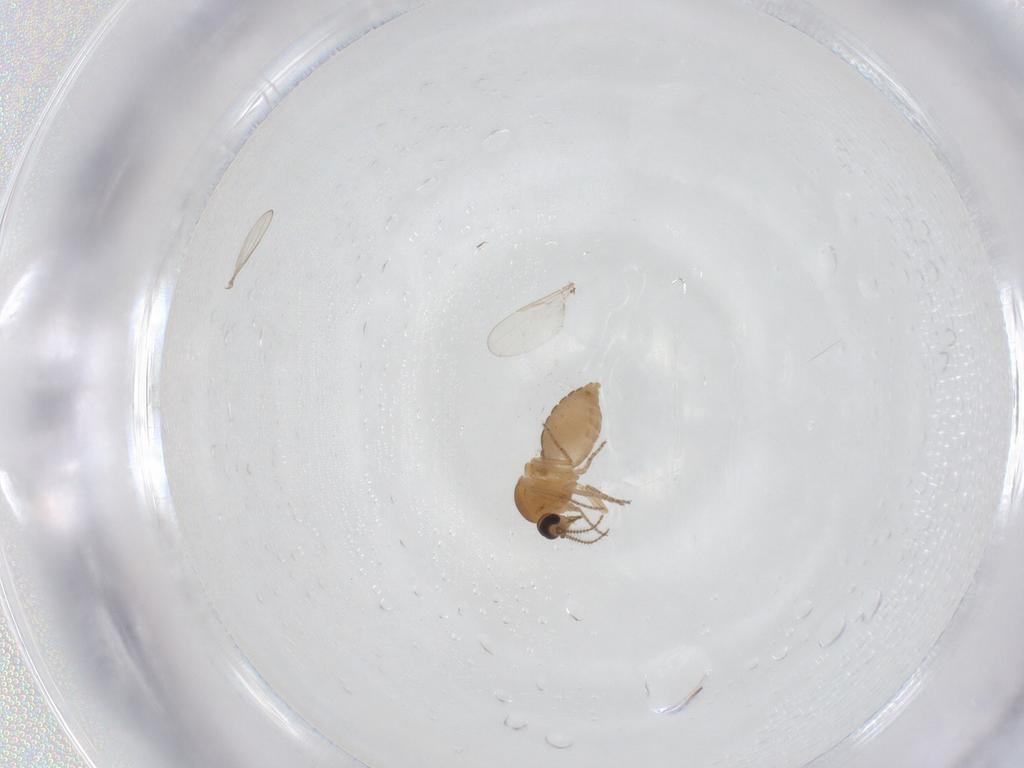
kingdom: Animalia
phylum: Arthropoda
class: Insecta
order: Diptera
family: Ceratopogonidae
